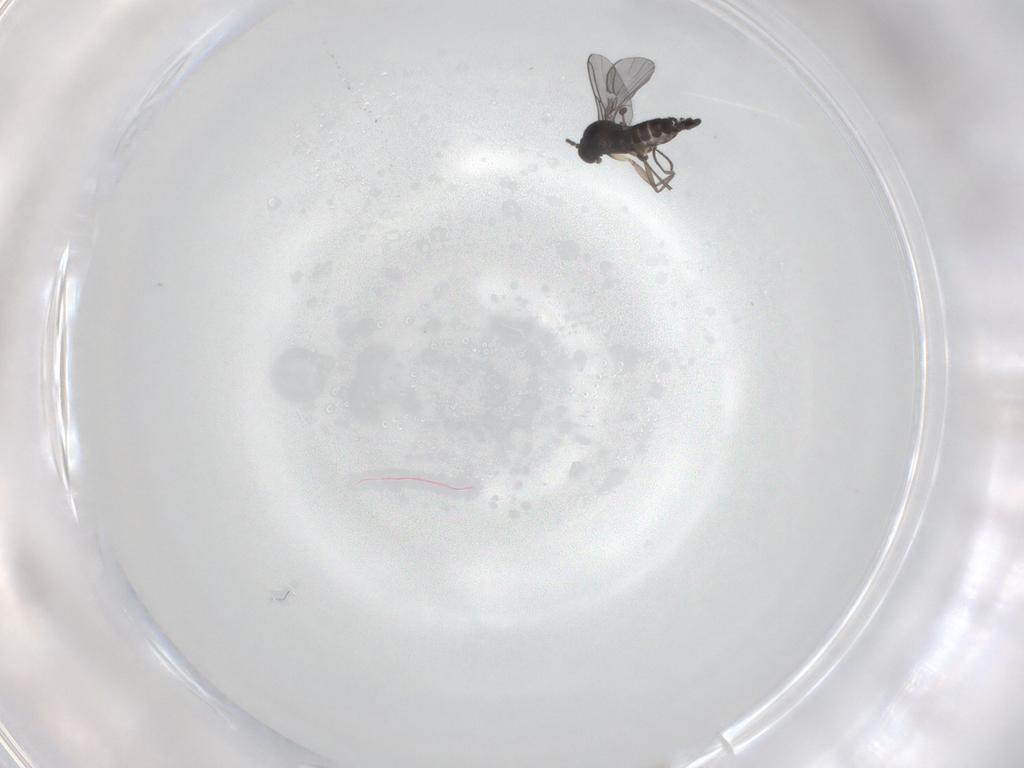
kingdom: Animalia
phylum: Arthropoda
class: Insecta
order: Diptera
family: Sciaridae
